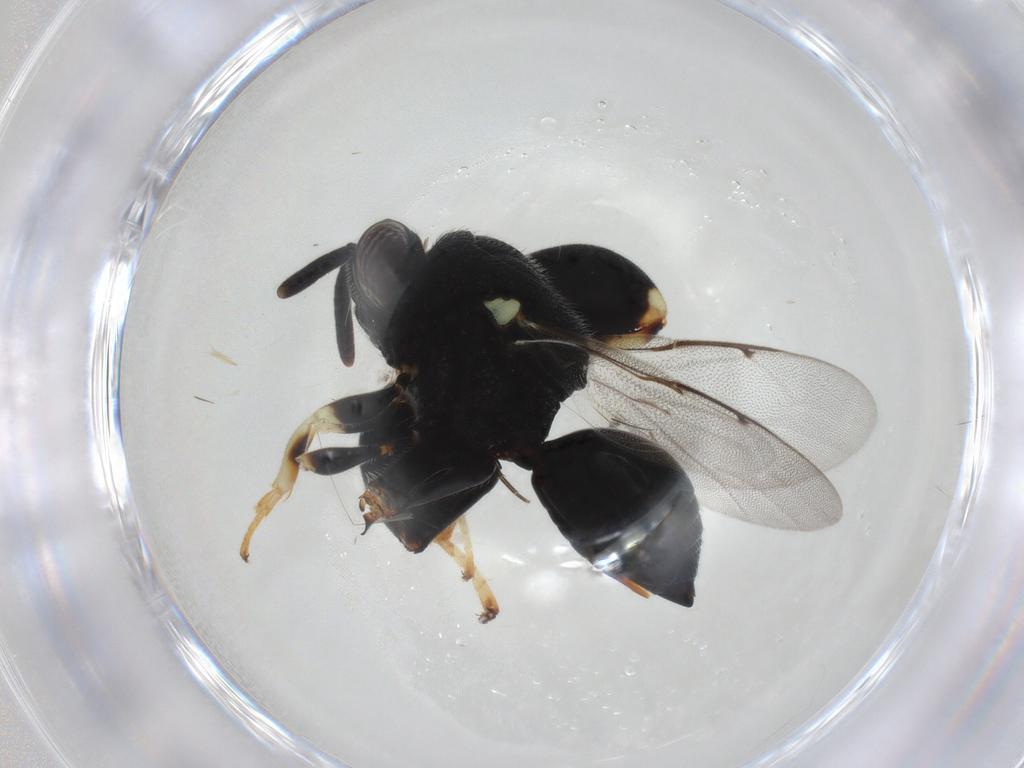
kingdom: Animalia
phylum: Arthropoda
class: Insecta
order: Hymenoptera
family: Chalcididae
